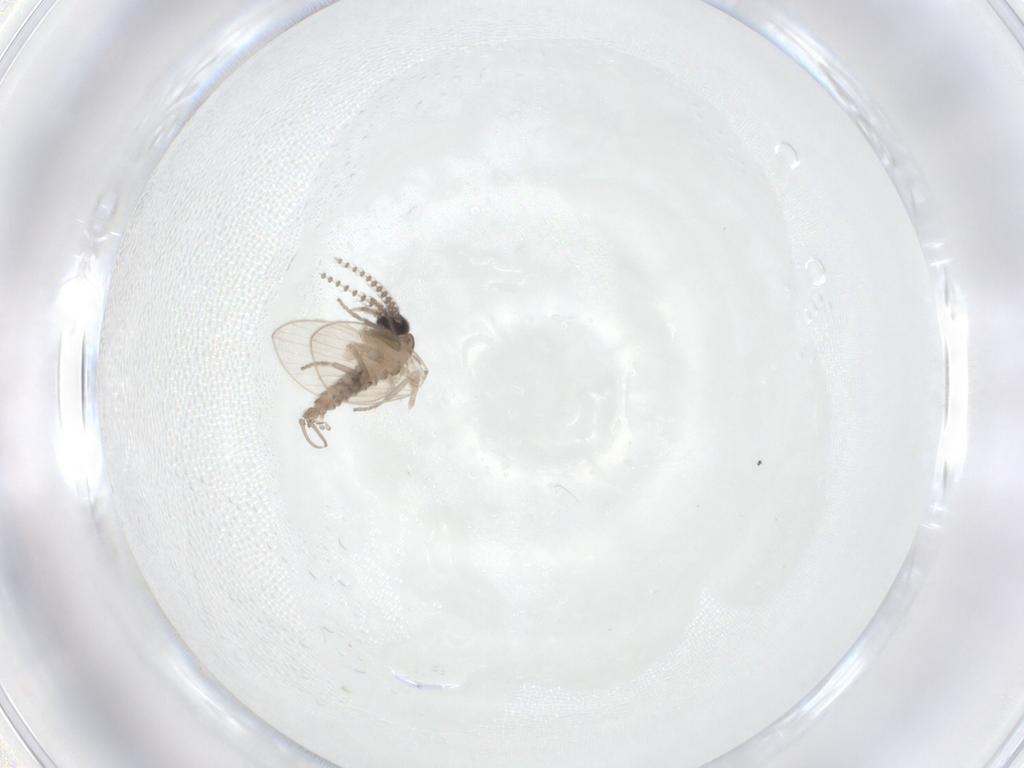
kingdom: Animalia
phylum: Arthropoda
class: Insecta
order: Diptera
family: Psychodidae
